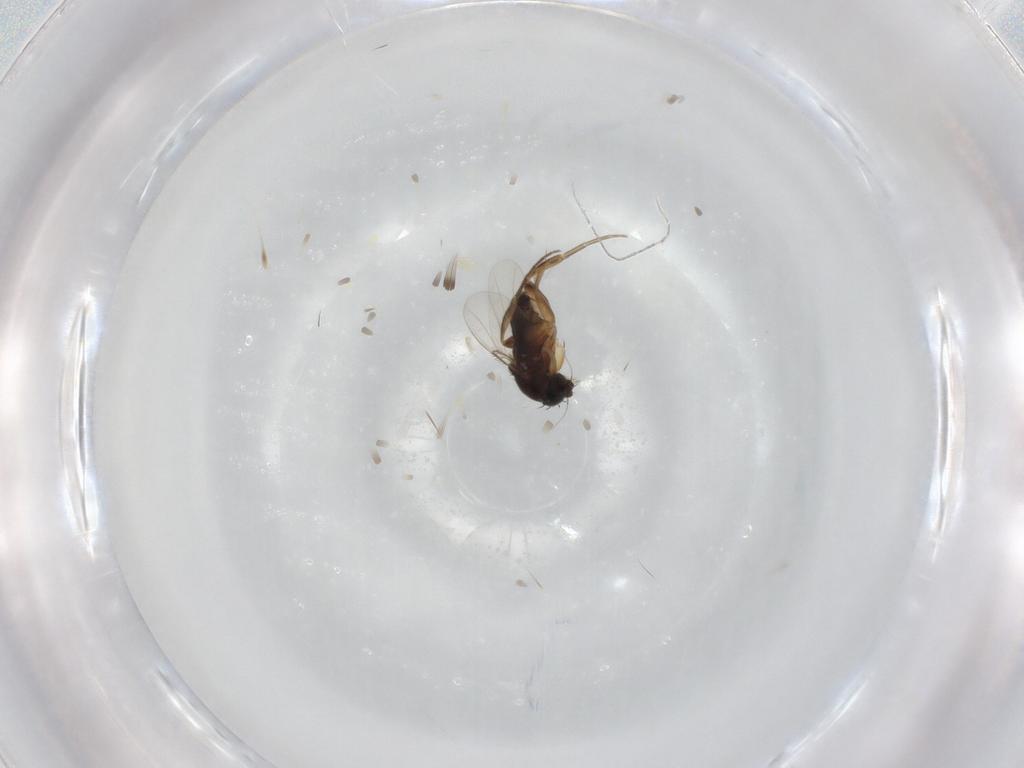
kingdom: Animalia
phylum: Arthropoda
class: Insecta
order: Diptera
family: Phoridae
